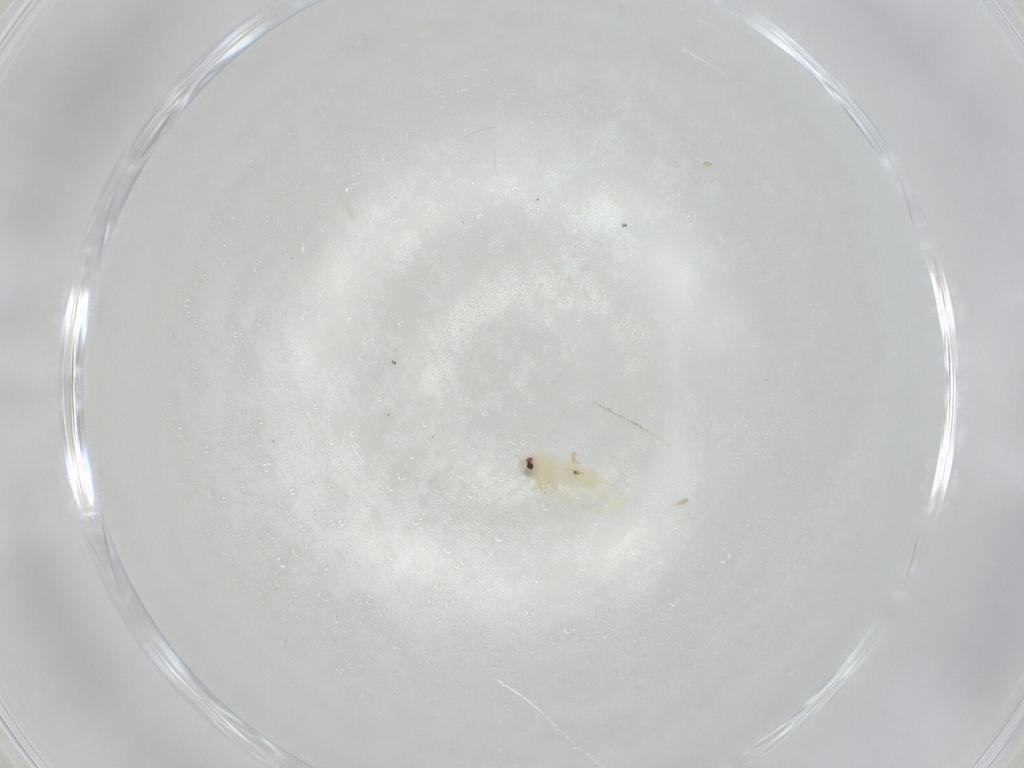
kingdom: Animalia
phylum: Arthropoda
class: Insecta
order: Hemiptera
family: Aleyrodidae
